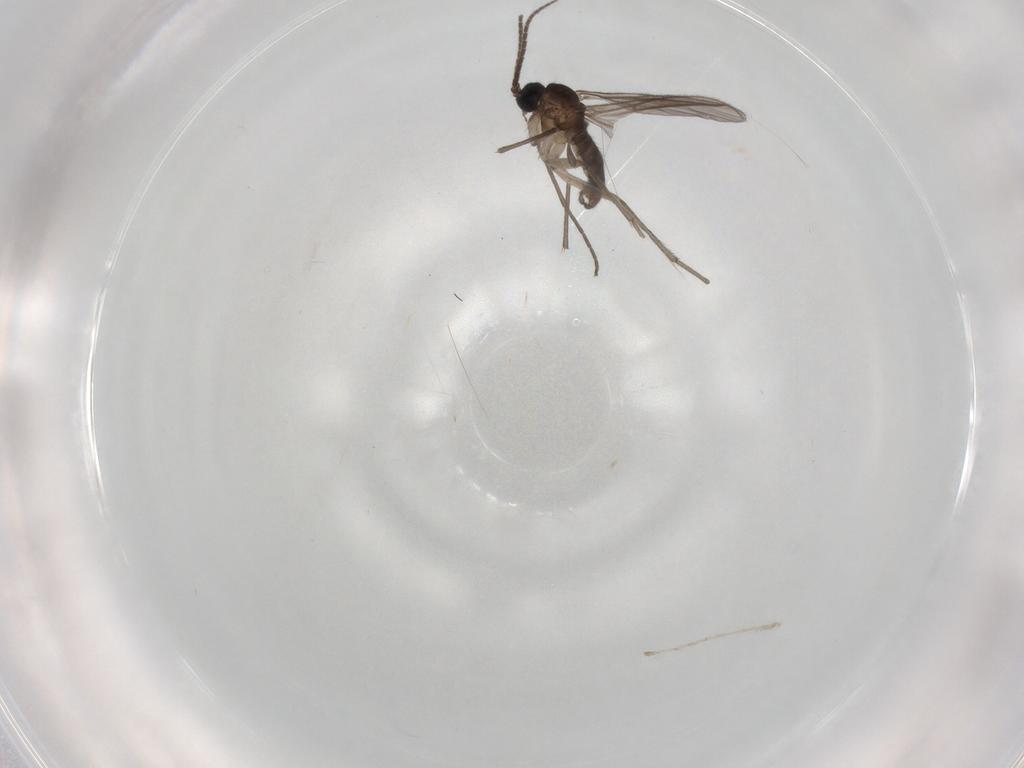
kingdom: Animalia
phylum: Arthropoda
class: Insecta
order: Diptera
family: Sciaridae
